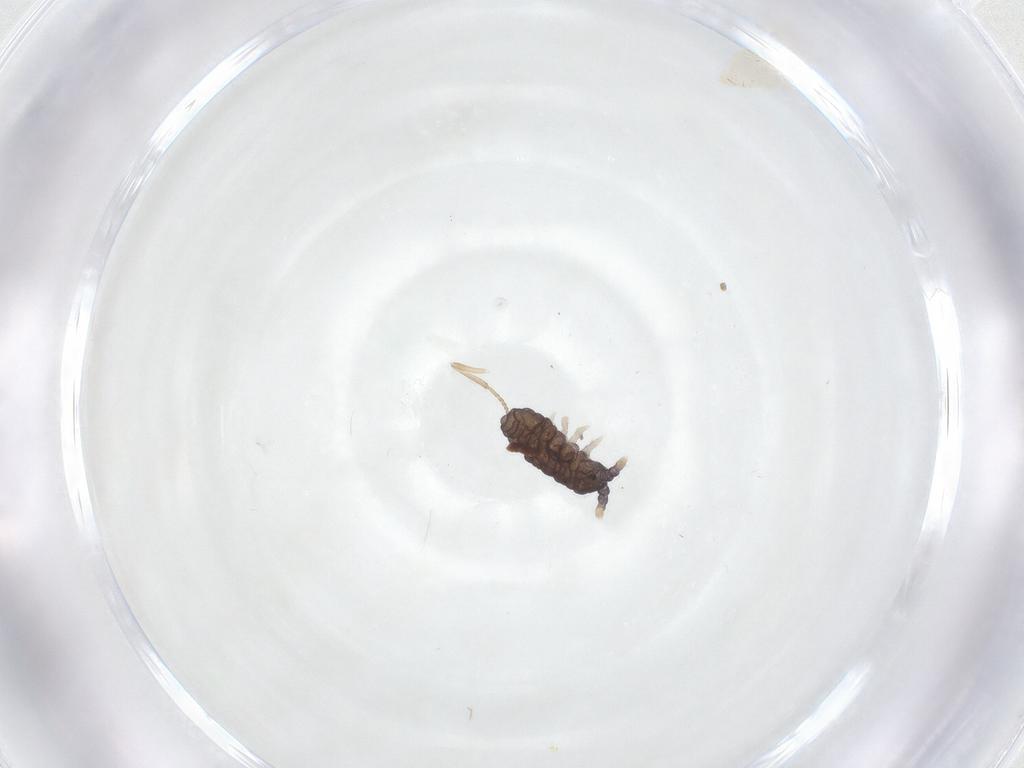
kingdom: Animalia
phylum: Arthropoda
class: Collembola
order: Poduromorpha
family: Neanuridae
